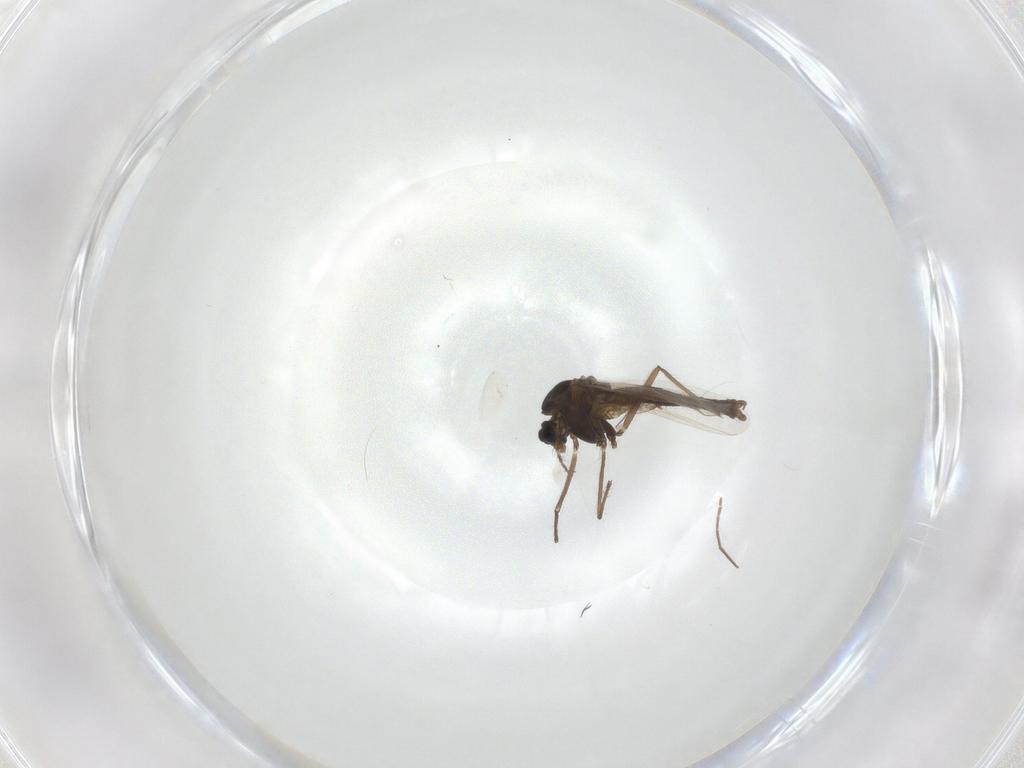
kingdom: Animalia
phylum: Arthropoda
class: Insecta
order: Diptera
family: Chironomidae
